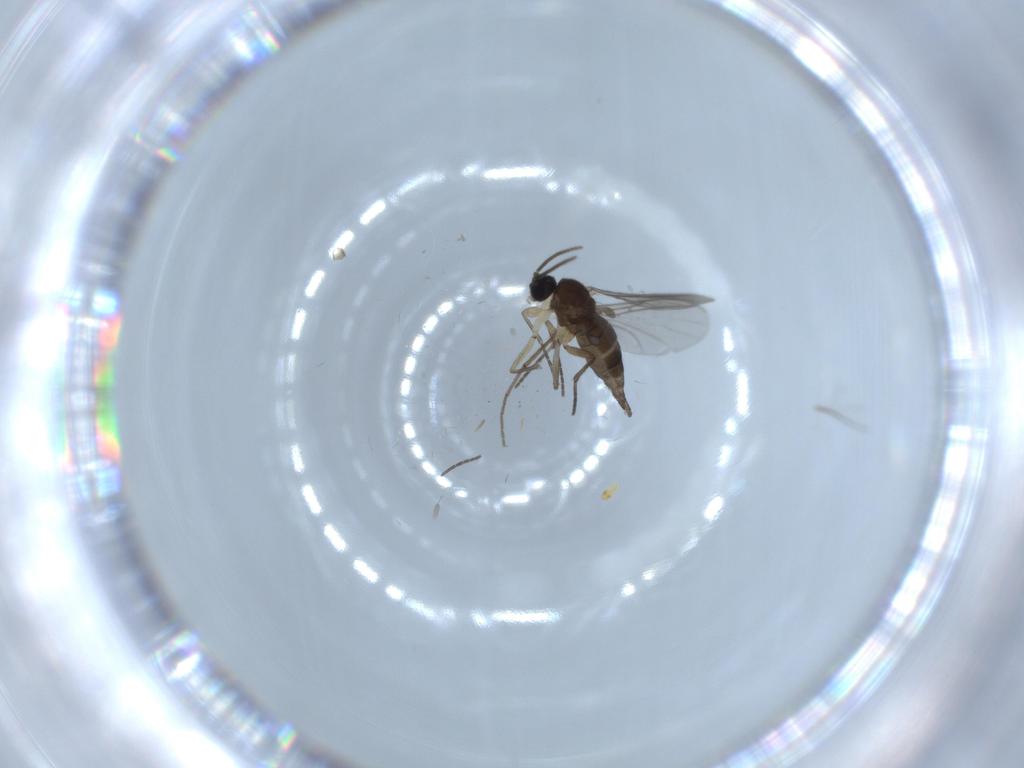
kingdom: Animalia
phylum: Arthropoda
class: Insecta
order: Diptera
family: Sciaridae
